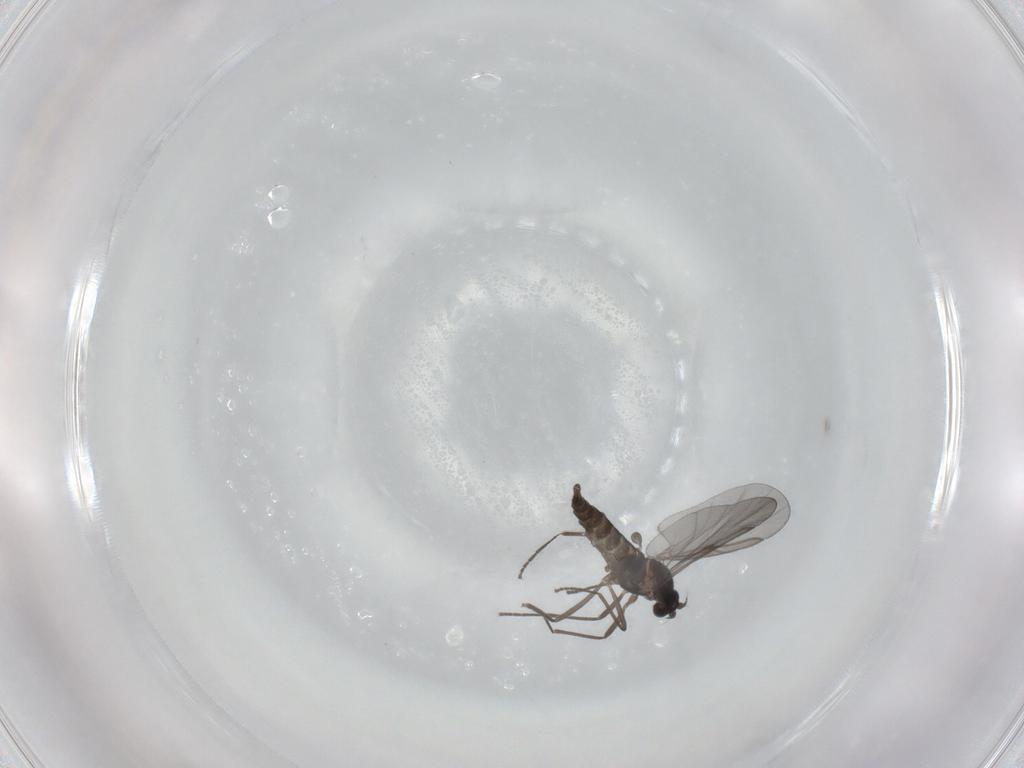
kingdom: Animalia
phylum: Arthropoda
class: Insecta
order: Diptera
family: Cecidomyiidae
